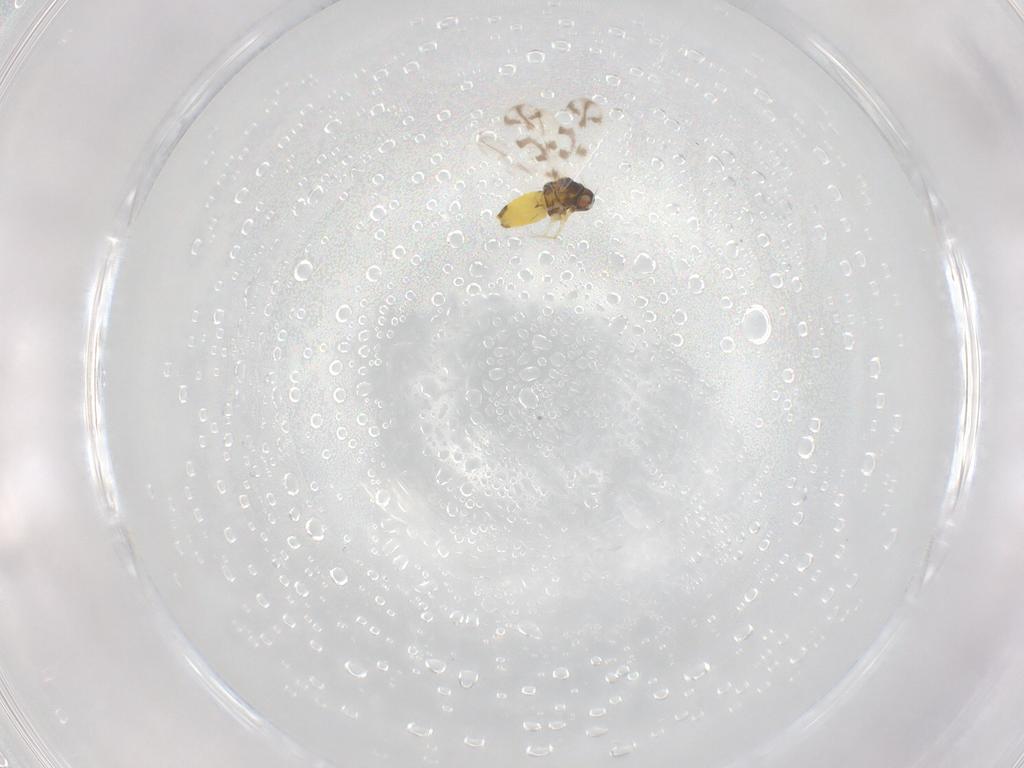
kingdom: Animalia
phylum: Arthropoda
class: Insecta
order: Hemiptera
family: Aleyrodidae
